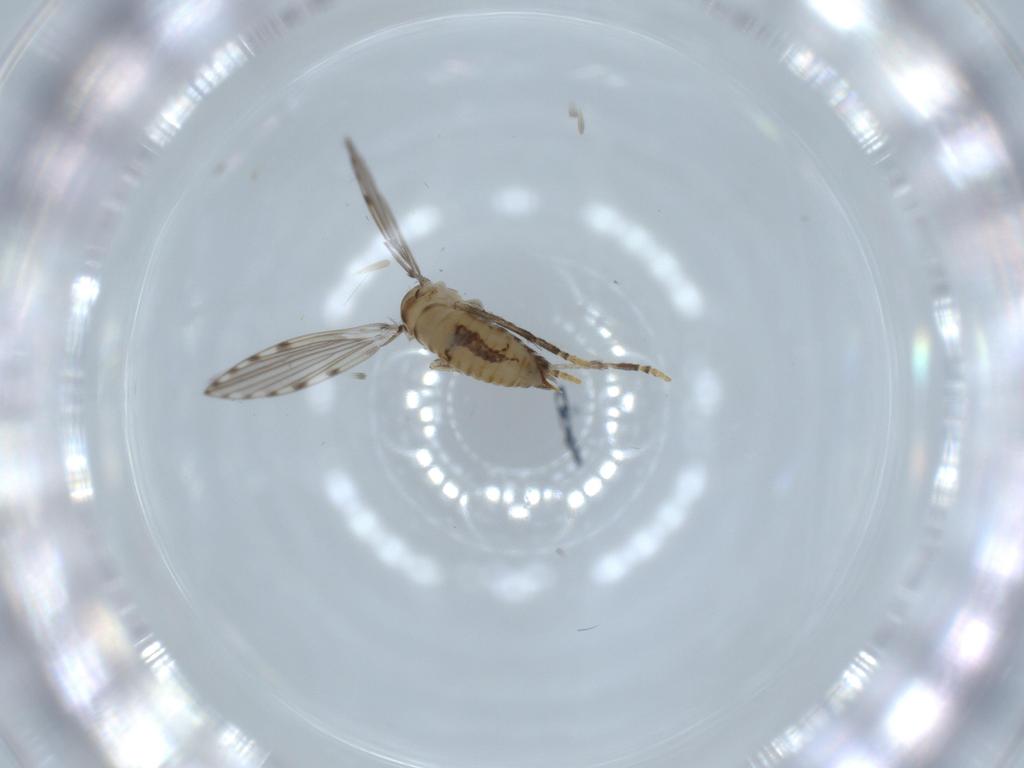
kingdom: Animalia
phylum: Arthropoda
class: Insecta
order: Diptera
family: Psychodidae
